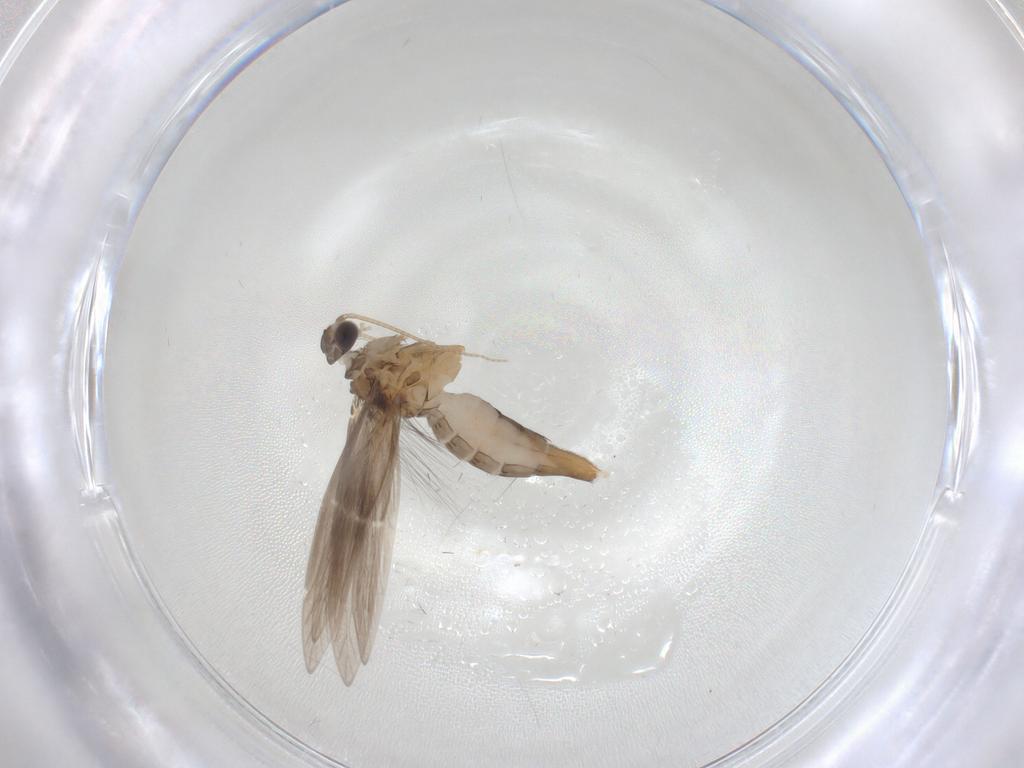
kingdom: Animalia
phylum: Arthropoda
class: Insecta
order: Trichoptera
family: Hydroptilidae
